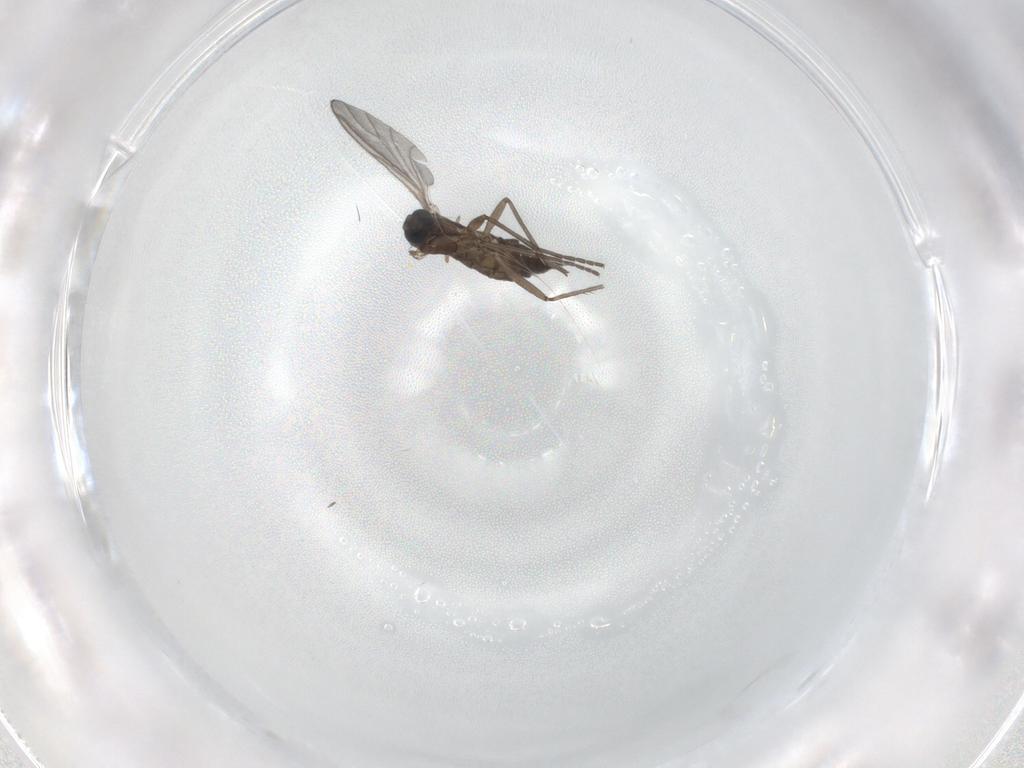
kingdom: Animalia
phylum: Arthropoda
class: Insecta
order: Diptera
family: Sciaridae
